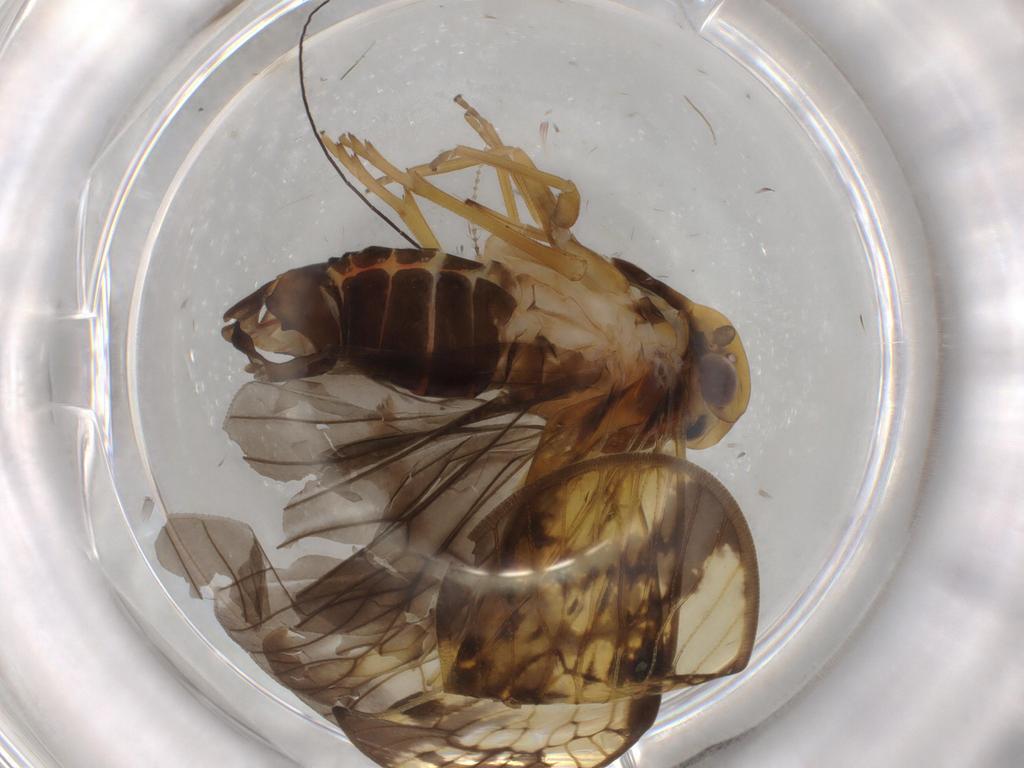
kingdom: Animalia
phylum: Arthropoda
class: Insecta
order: Hemiptera
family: Cixiidae
